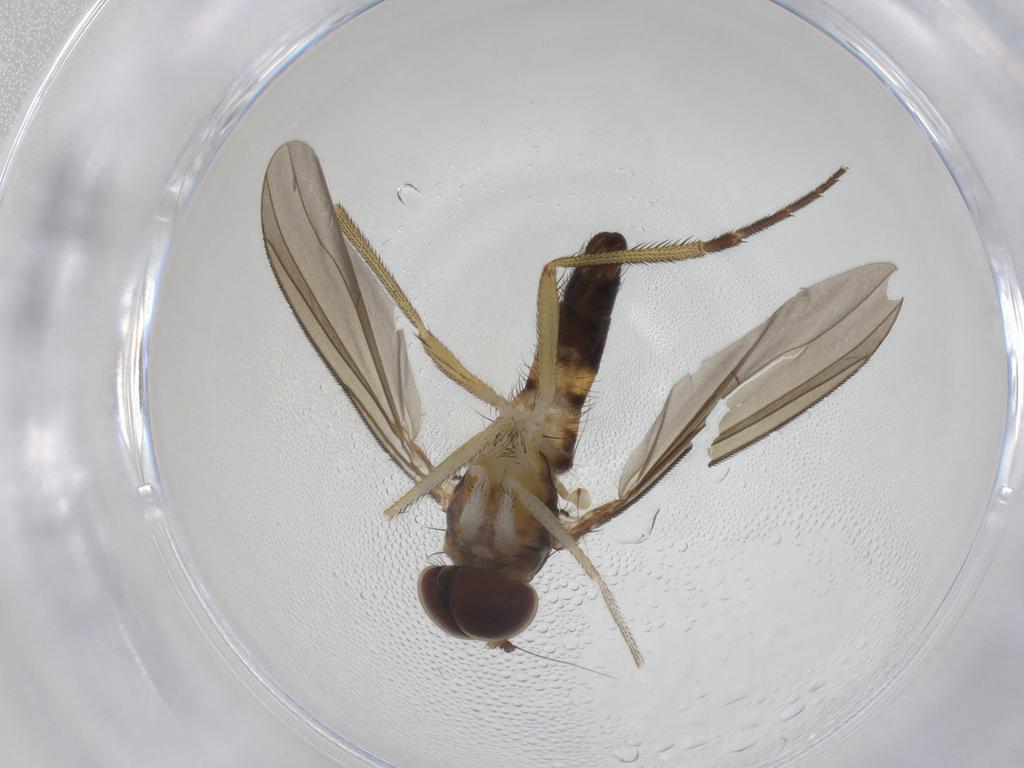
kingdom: Animalia
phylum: Arthropoda
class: Insecta
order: Diptera
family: Dolichopodidae
